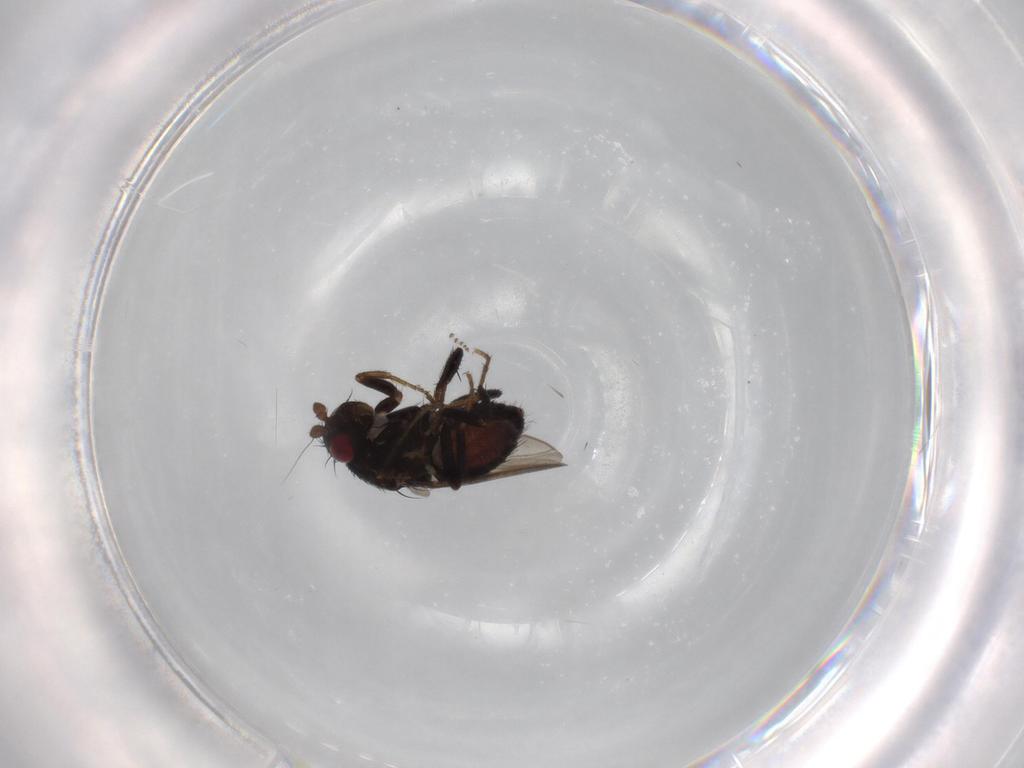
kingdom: Animalia
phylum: Arthropoda
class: Insecta
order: Diptera
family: Sphaeroceridae
